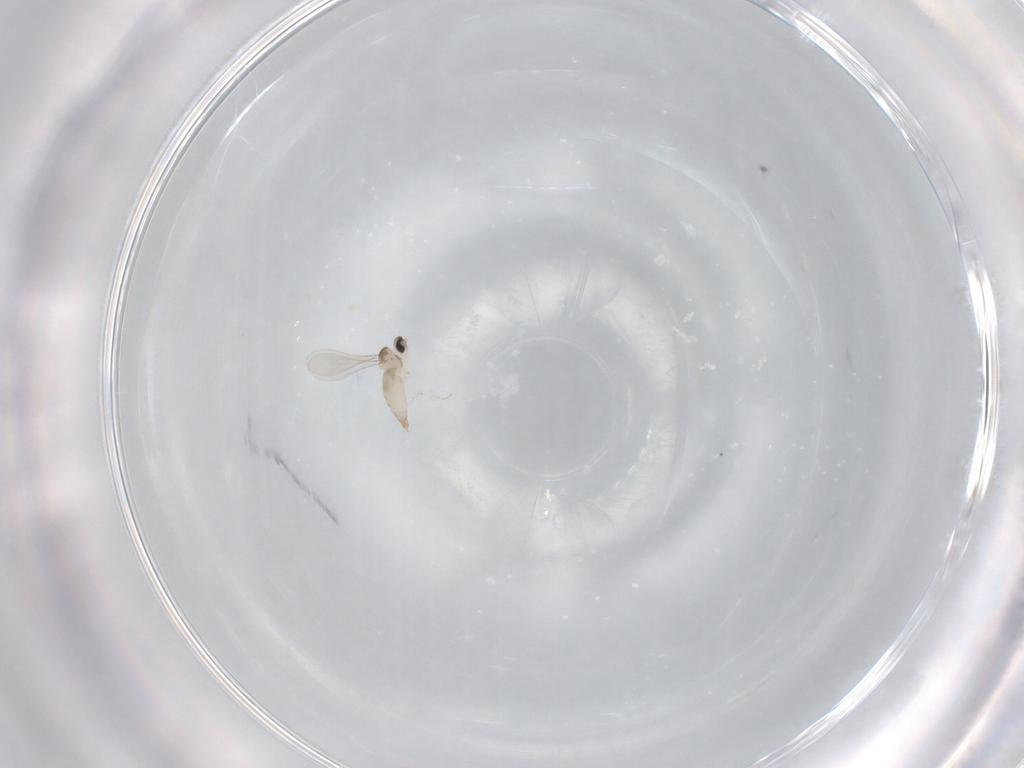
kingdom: Animalia
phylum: Arthropoda
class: Insecta
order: Diptera
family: Cecidomyiidae
